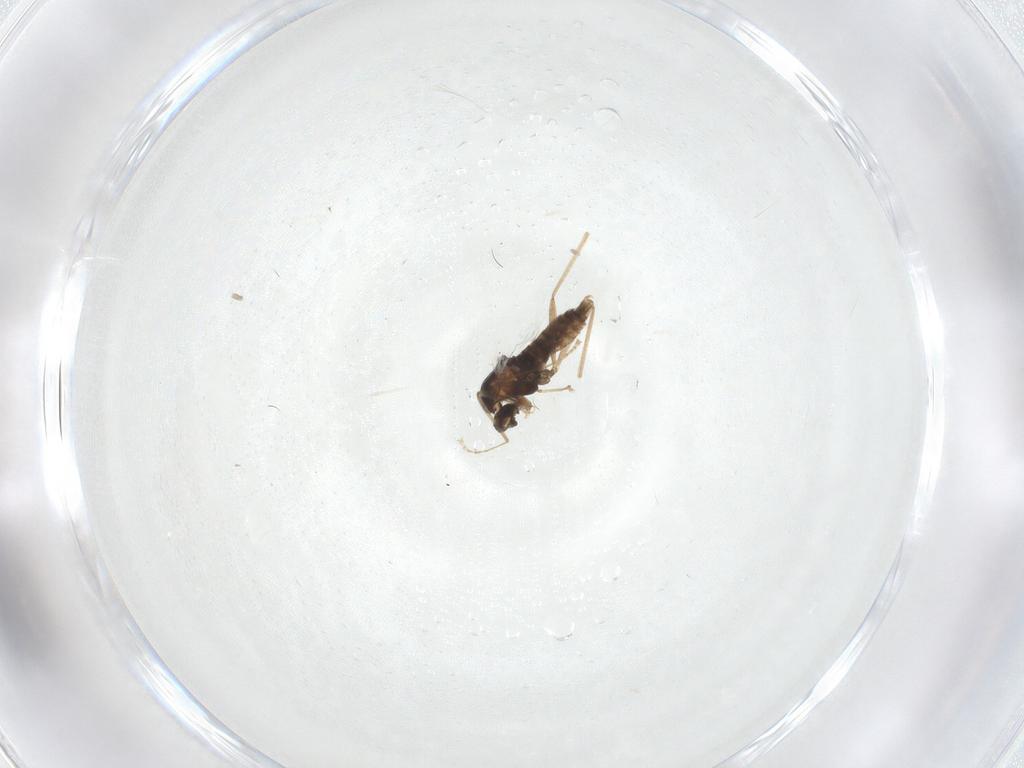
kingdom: Animalia
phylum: Arthropoda
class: Insecta
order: Diptera
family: Cecidomyiidae
